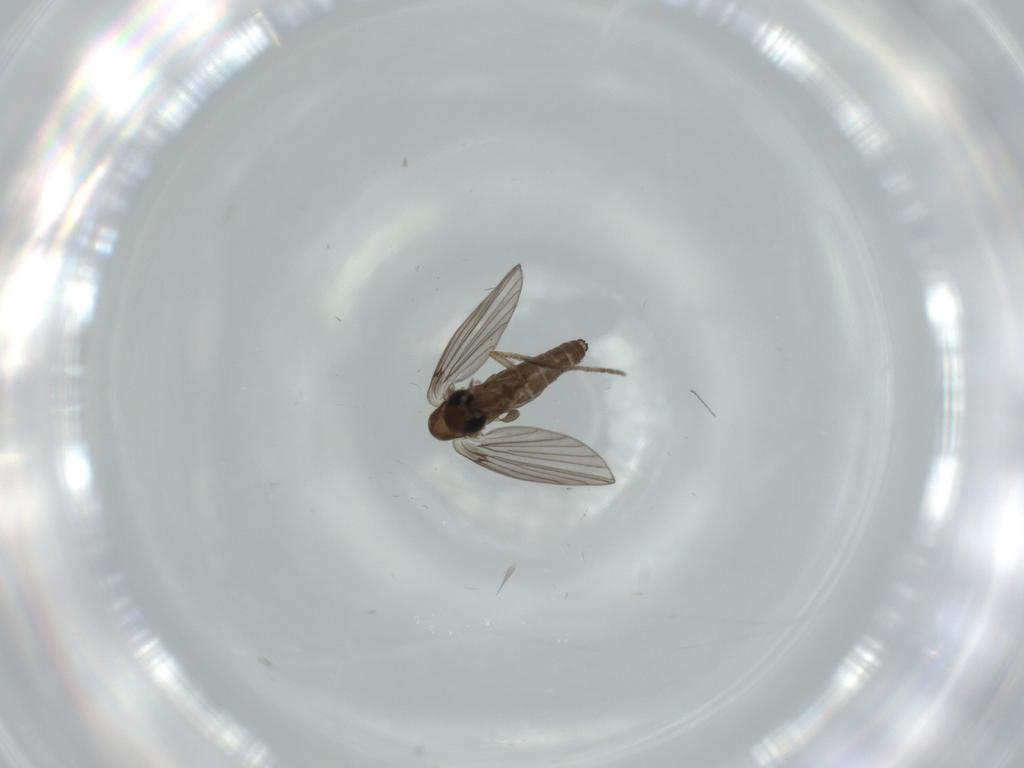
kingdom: Animalia
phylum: Arthropoda
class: Insecta
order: Diptera
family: Psychodidae
